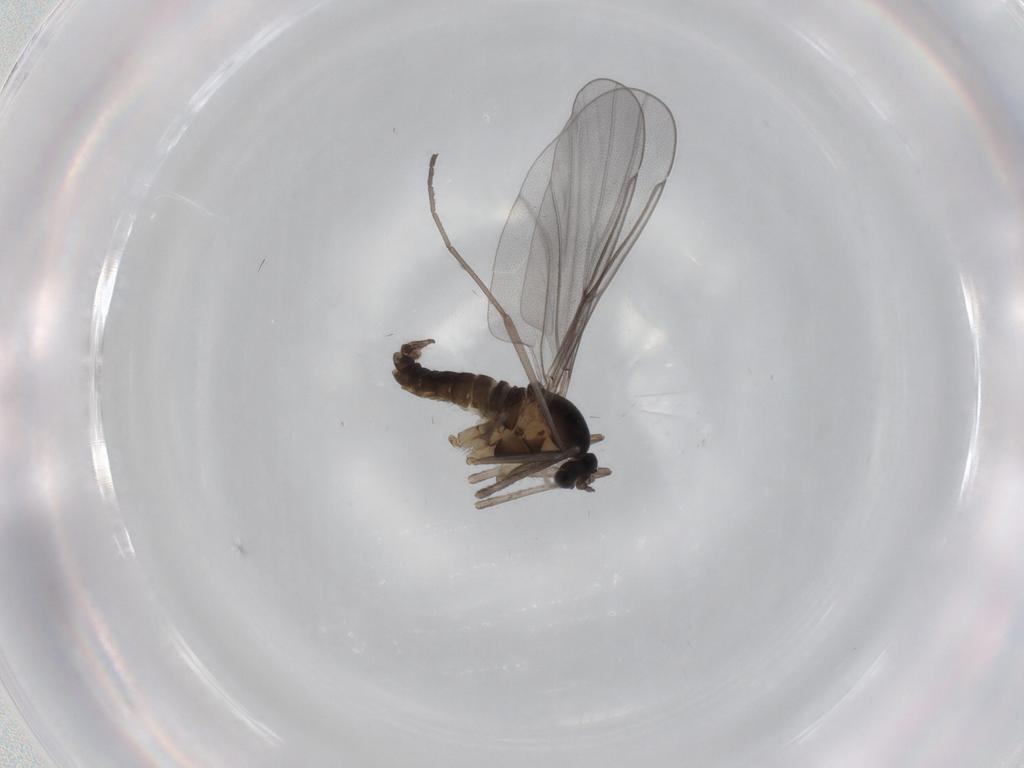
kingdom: Animalia
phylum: Arthropoda
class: Insecta
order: Diptera
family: Cecidomyiidae
